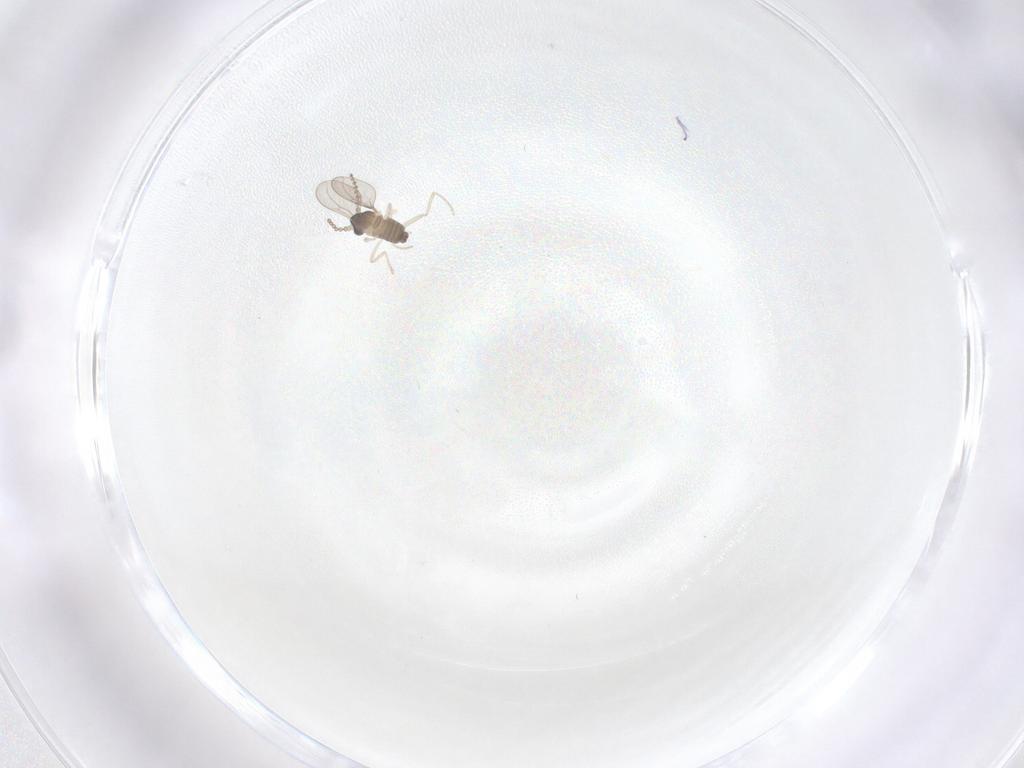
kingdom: Animalia
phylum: Arthropoda
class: Insecta
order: Diptera
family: Cecidomyiidae
